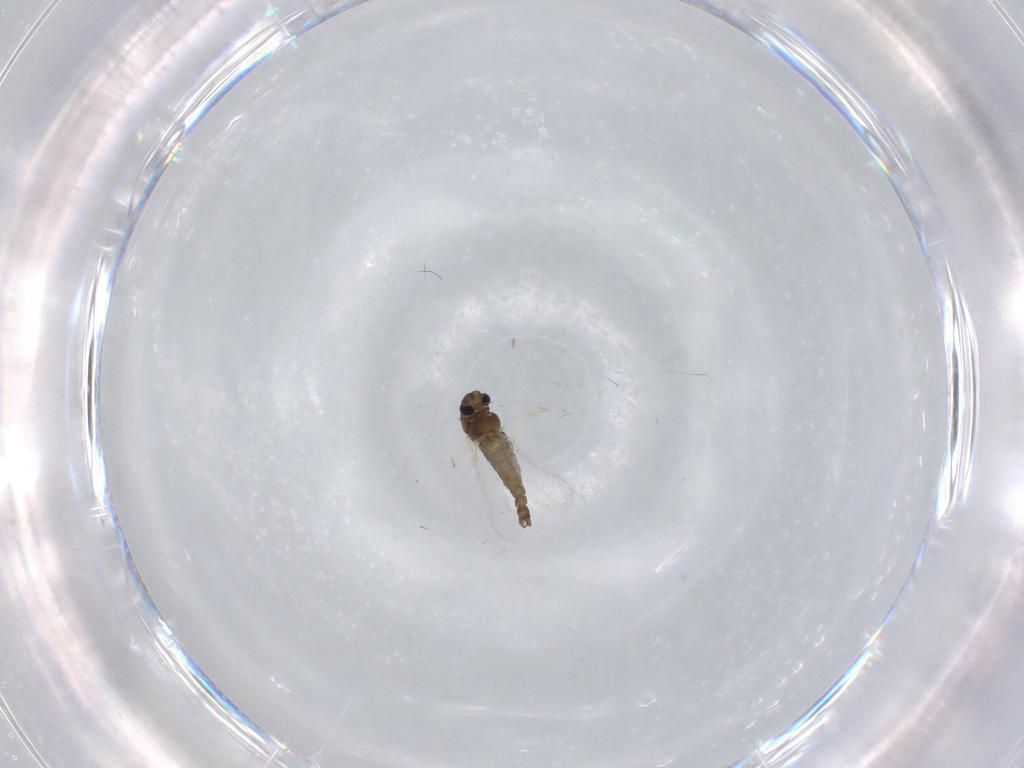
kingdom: Animalia
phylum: Arthropoda
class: Insecta
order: Diptera
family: Chironomidae
